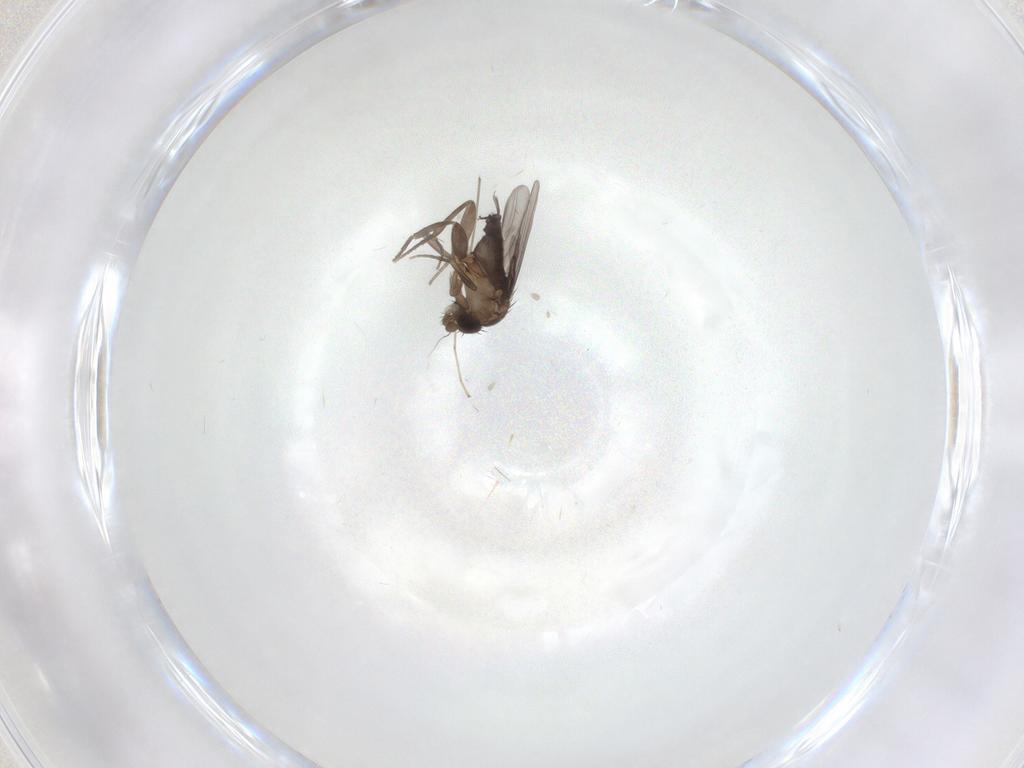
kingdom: Animalia
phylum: Arthropoda
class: Insecta
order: Diptera
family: Phoridae
